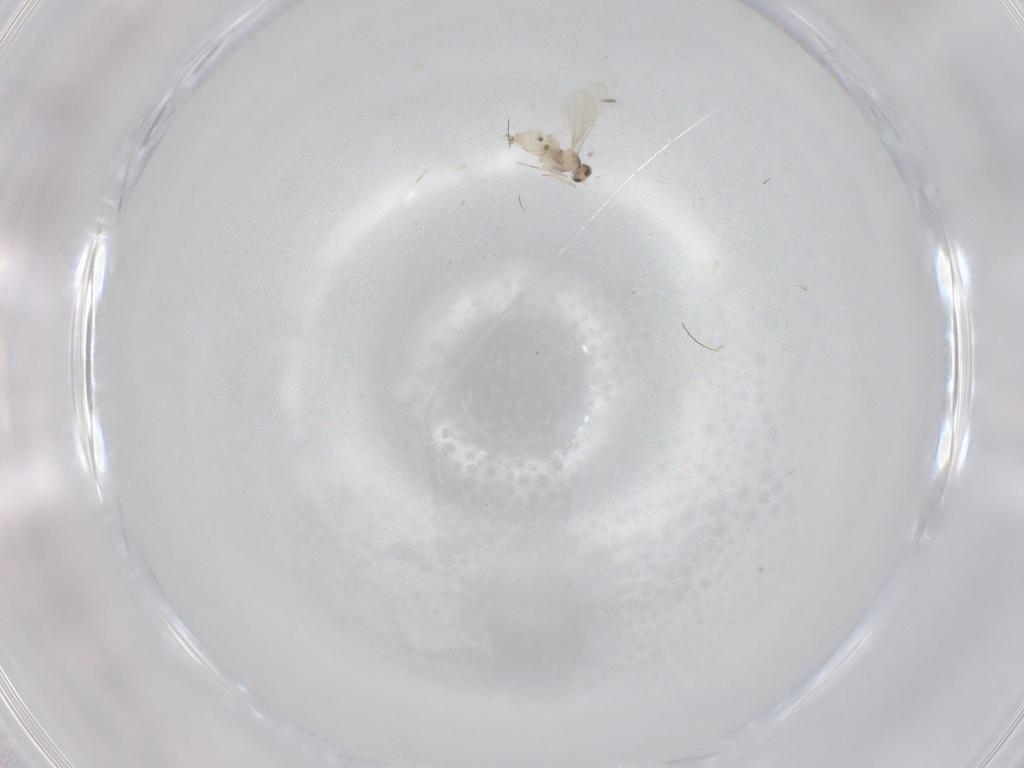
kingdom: Animalia
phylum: Arthropoda
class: Insecta
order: Diptera
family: Cecidomyiidae
